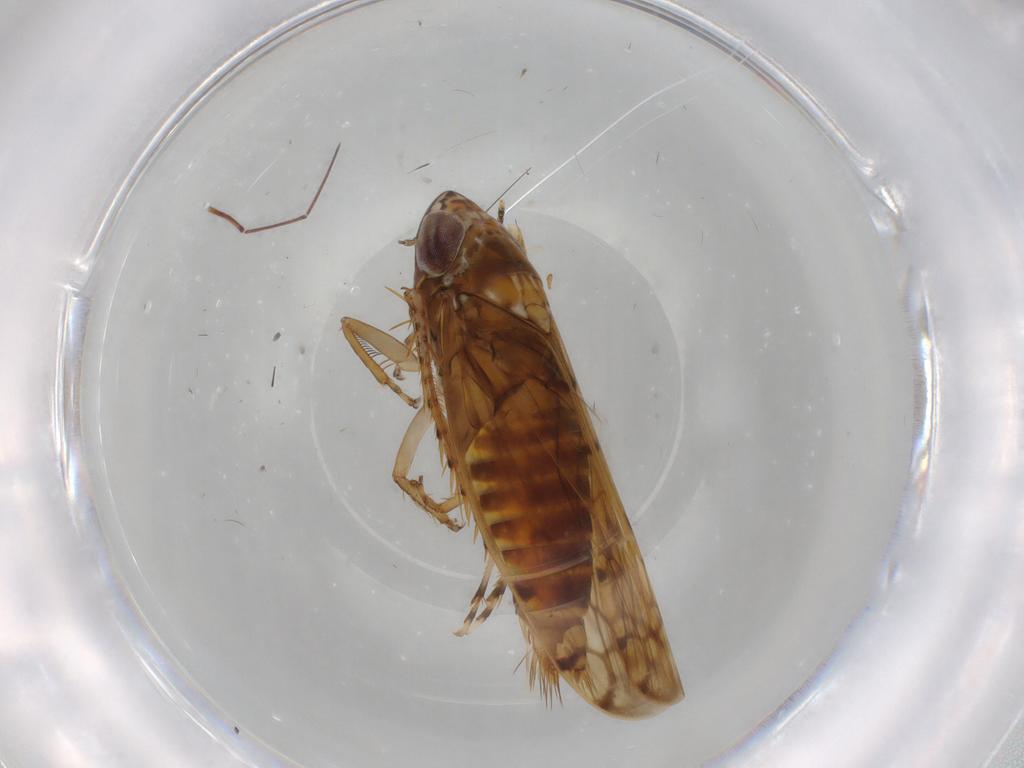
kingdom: Animalia
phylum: Arthropoda
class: Insecta
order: Hemiptera
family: Cicadellidae
